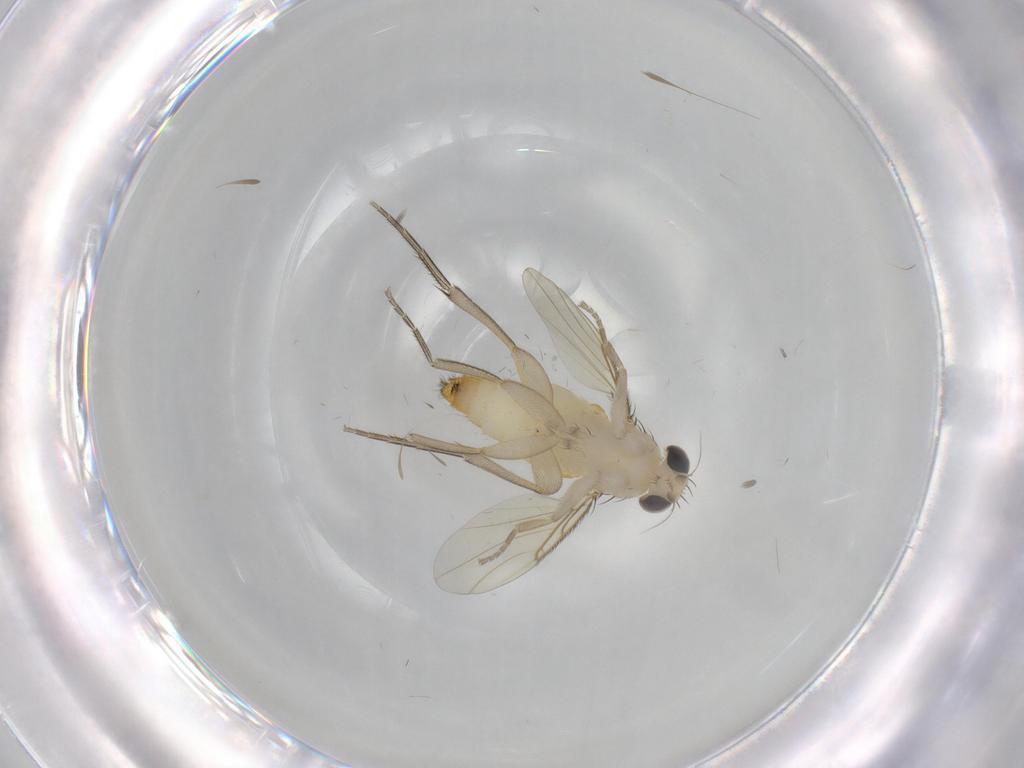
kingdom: Animalia
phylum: Arthropoda
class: Insecta
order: Diptera
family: Phoridae
